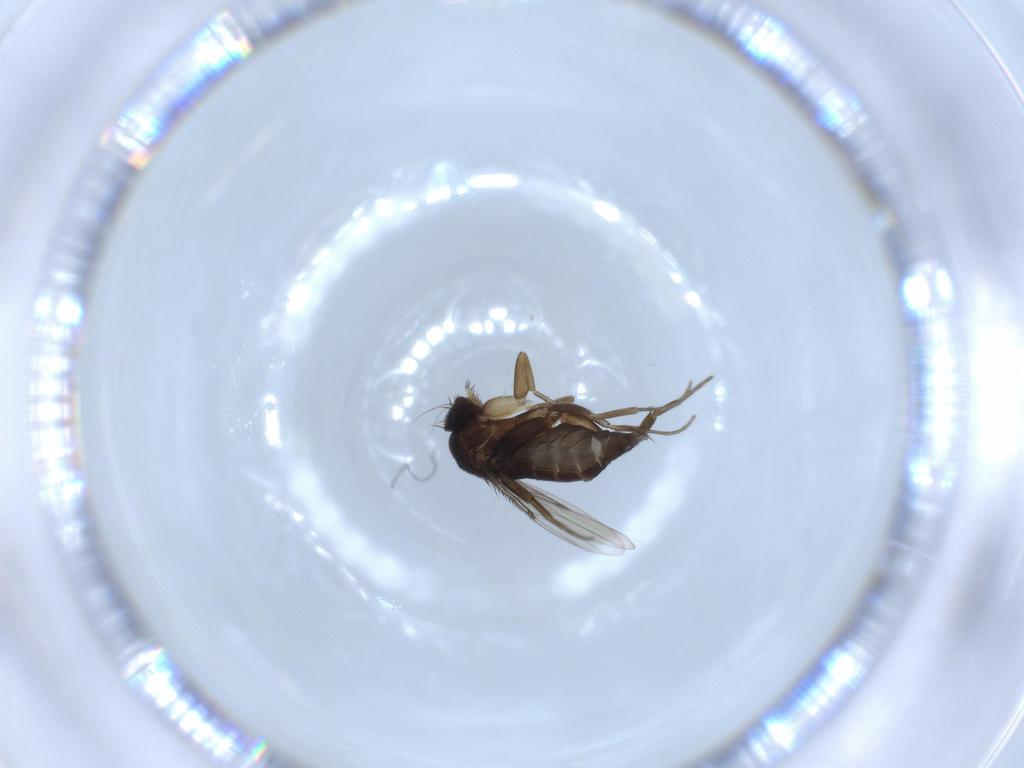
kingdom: Animalia
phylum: Arthropoda
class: Insecta
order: Diptera
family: Phoridae
